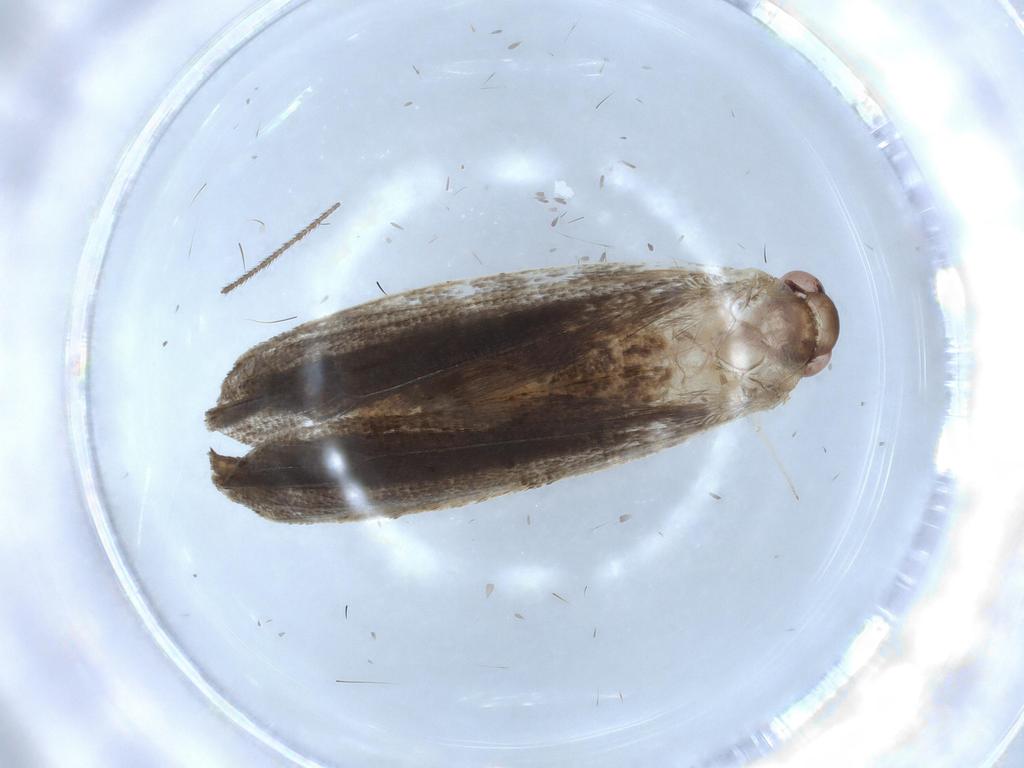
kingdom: Animalia
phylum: Arthropoda
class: Insecta
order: Lepidoptera
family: Autostichidae
